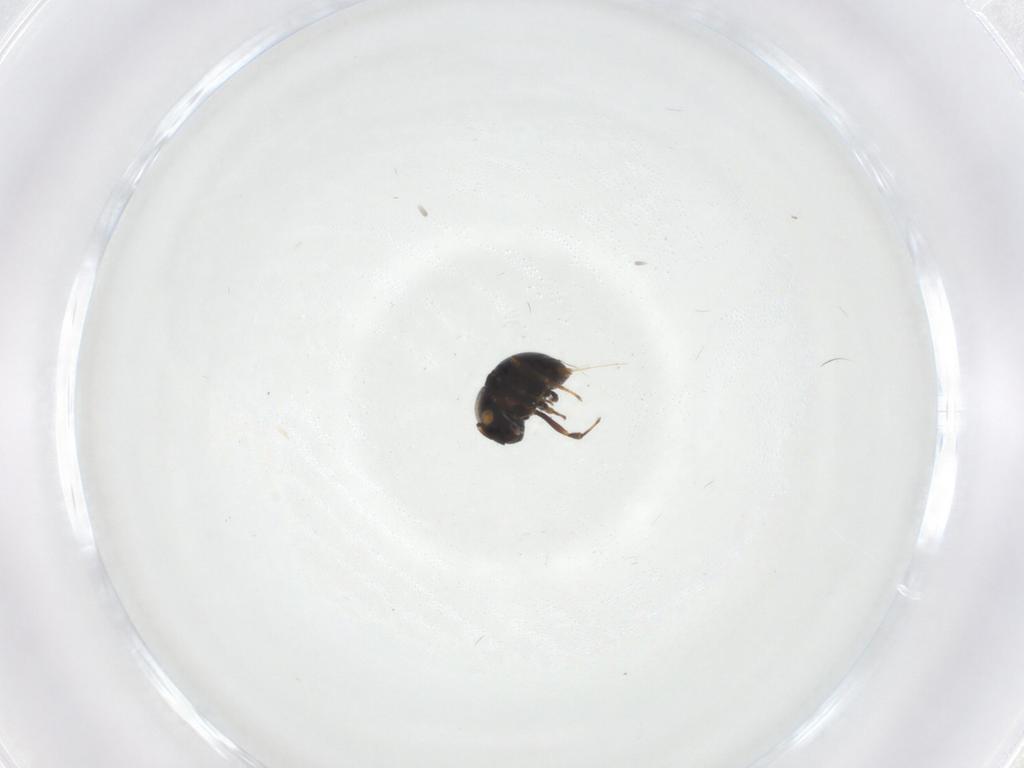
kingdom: Animalia
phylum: Arthropoda
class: Insecta
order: Hymenoptera
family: Scelionidae
